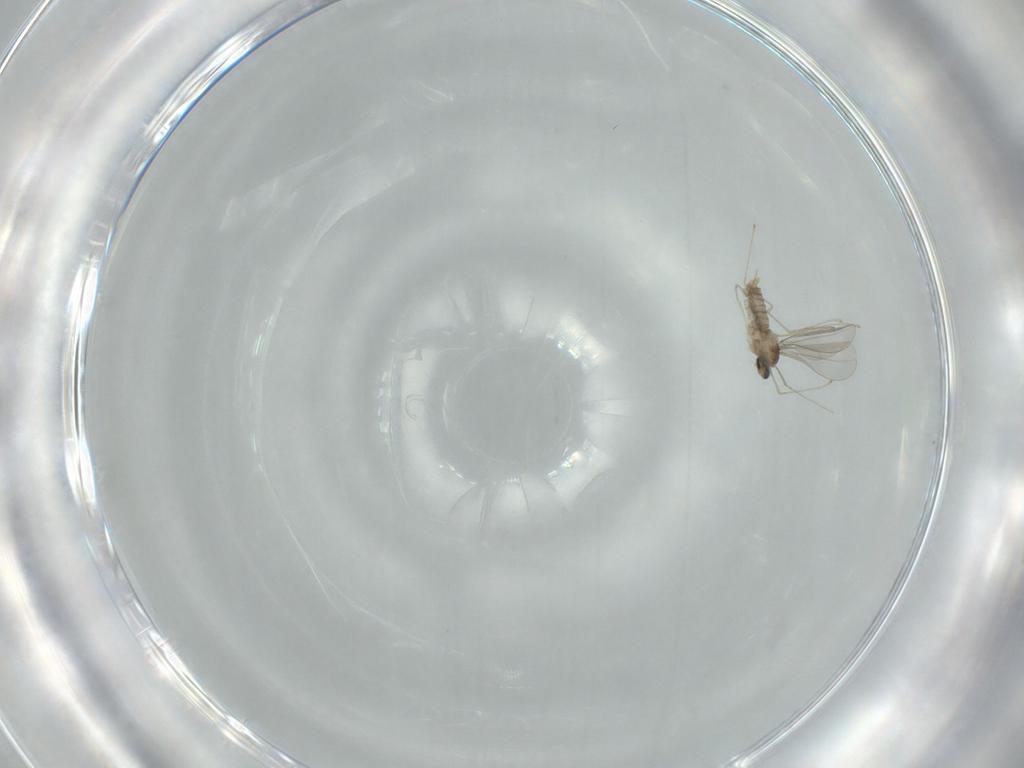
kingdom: Animalia
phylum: Arthropoda
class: Insecta
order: Diptera
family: Cecidomyiidae
